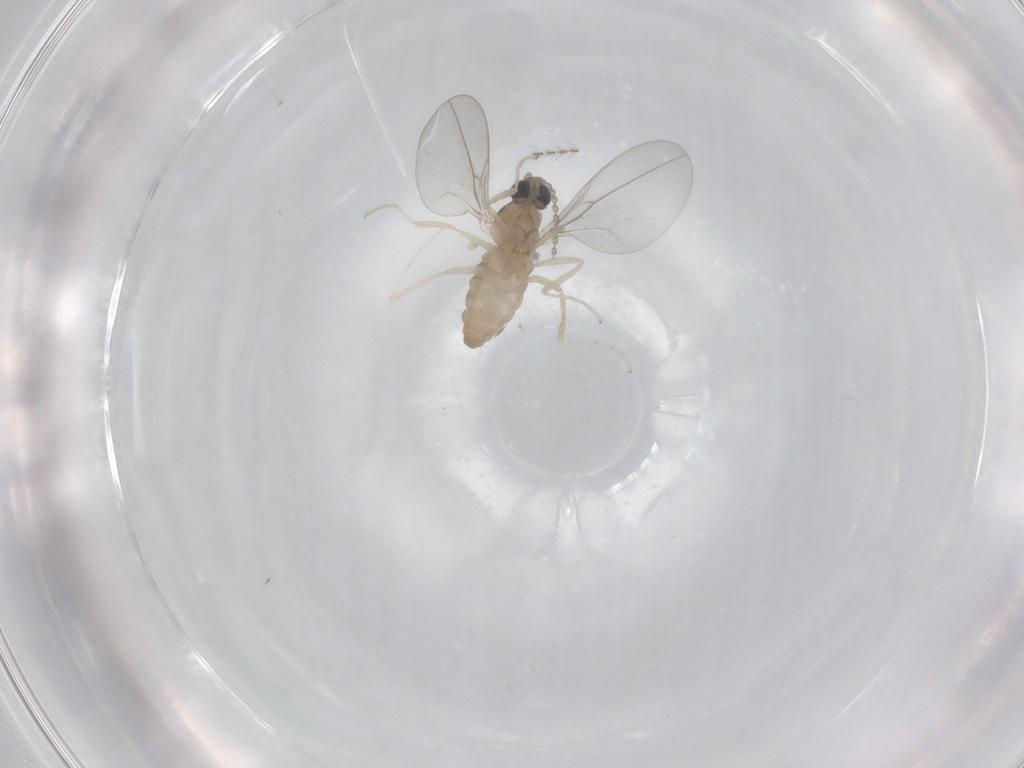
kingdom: Animalia
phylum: Arthropoda
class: Insecta
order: Diptera
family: Cecidomyiidae
